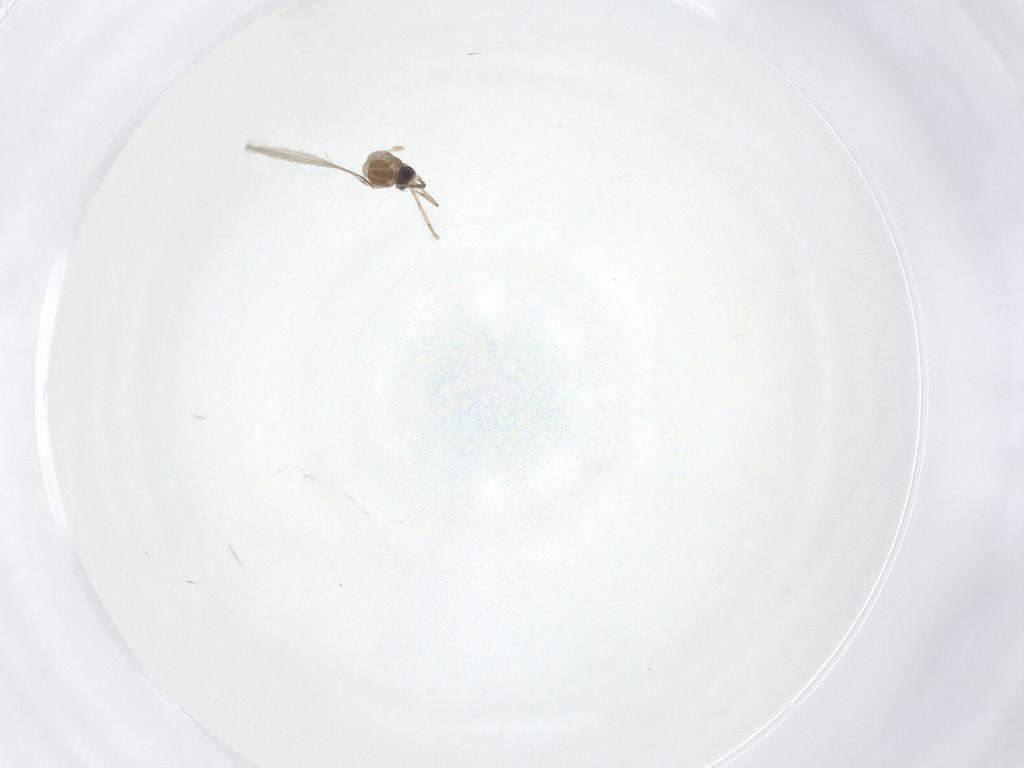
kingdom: Animalia
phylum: Arthropoda
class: Insecta
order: Diptera
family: Cecidomyiidae
